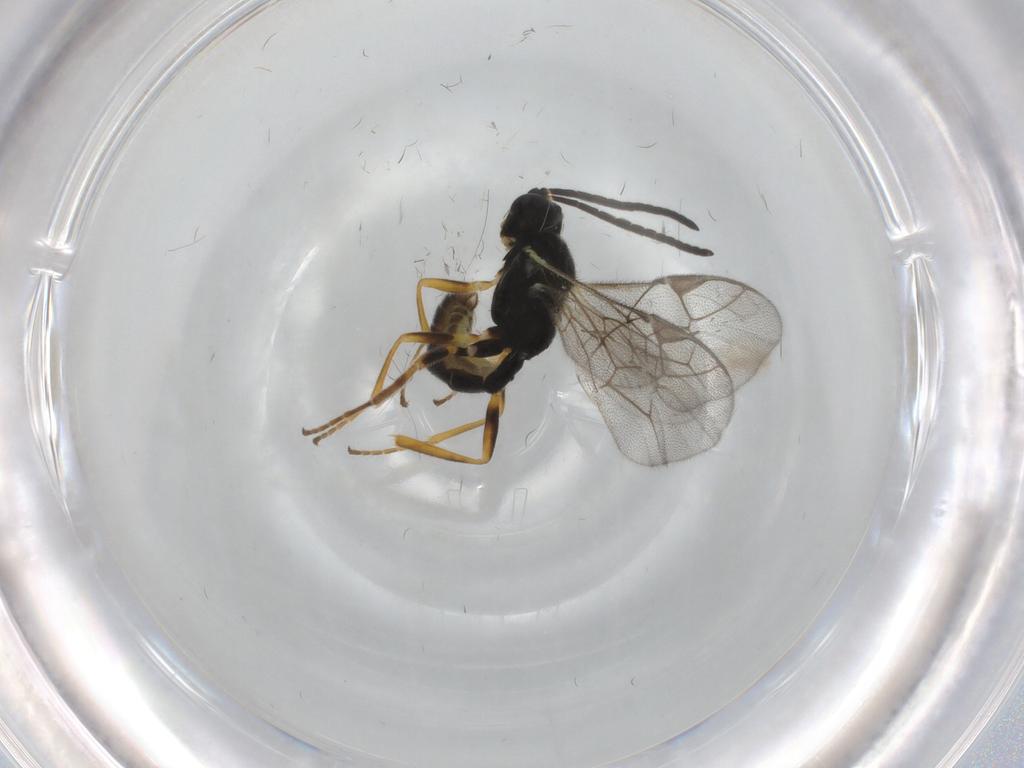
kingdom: Animalia
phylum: Arthropoda
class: Insecta
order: Hymenoptera
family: Ichneumonidae
